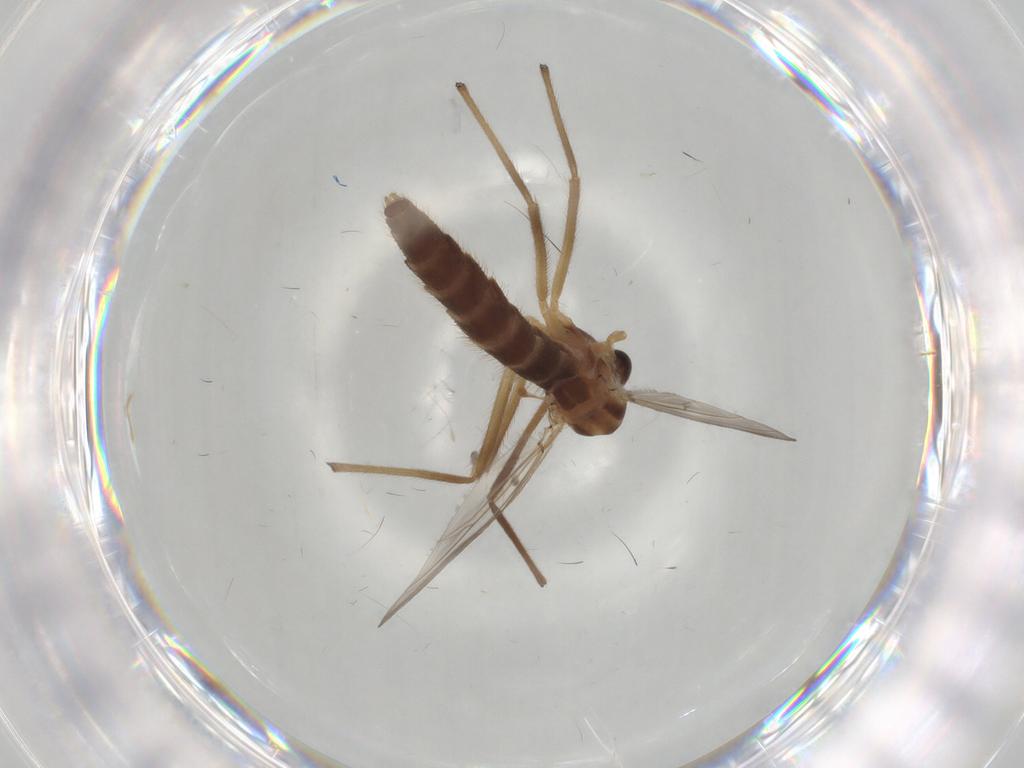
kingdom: Animalia
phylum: Arthropoda
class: Insecta
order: Diptera
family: Chironomidae
